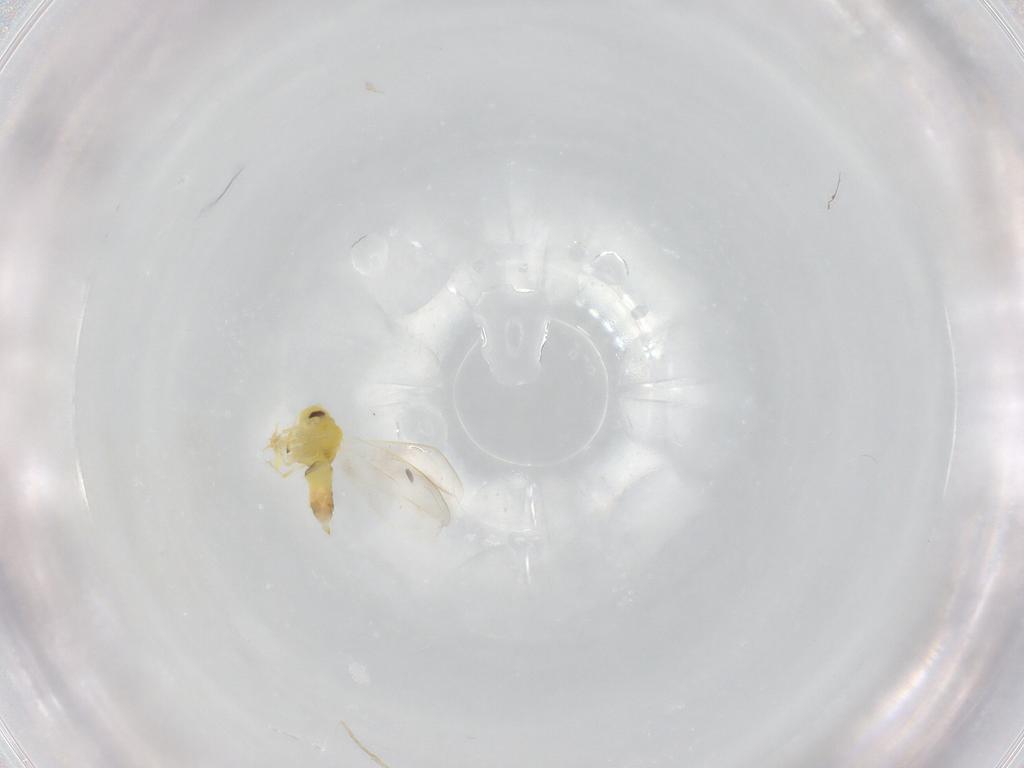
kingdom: Animalia
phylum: Arthropoda
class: Insecta
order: Hemiptera
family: Aleyrodidae
